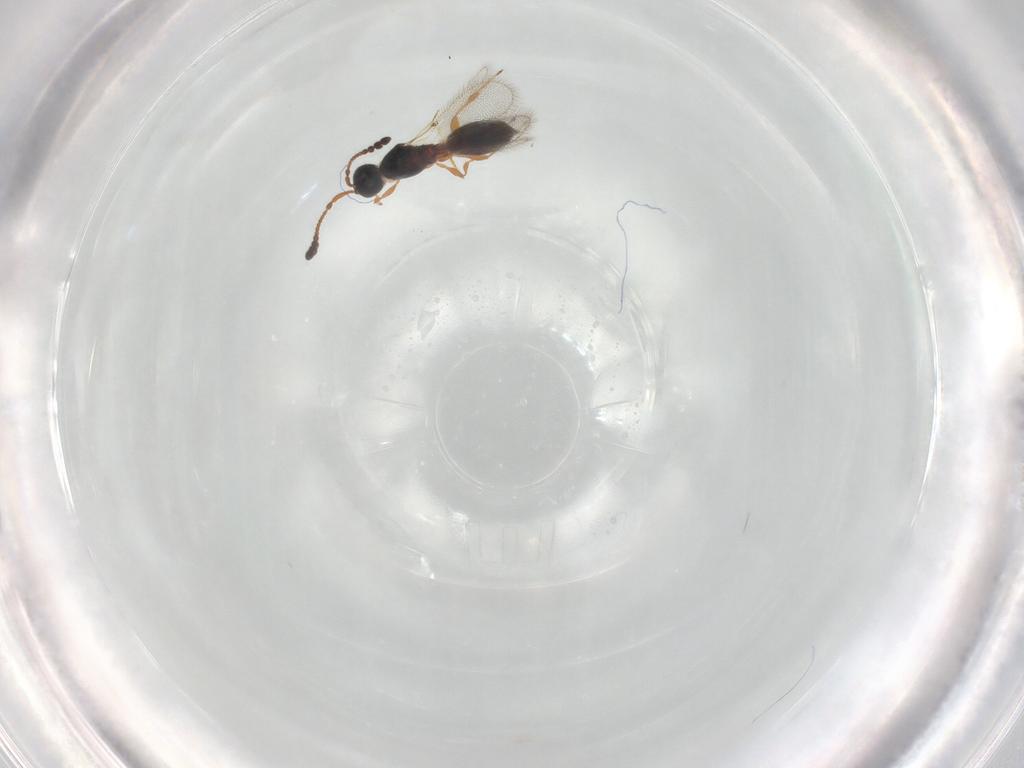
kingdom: Animalia
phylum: Arthropoda
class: Insecta
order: Hymenoptera
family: Diapriidae
